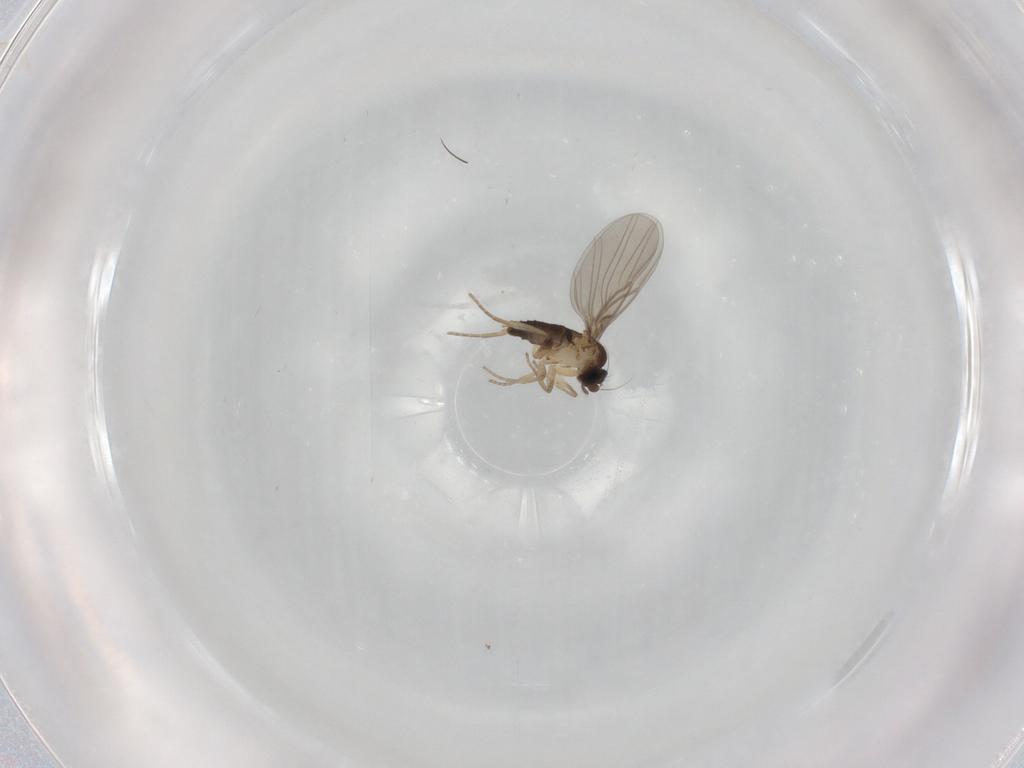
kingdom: Animalia
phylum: Arthropoda
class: Insecta
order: Diptera
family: Phoridae
